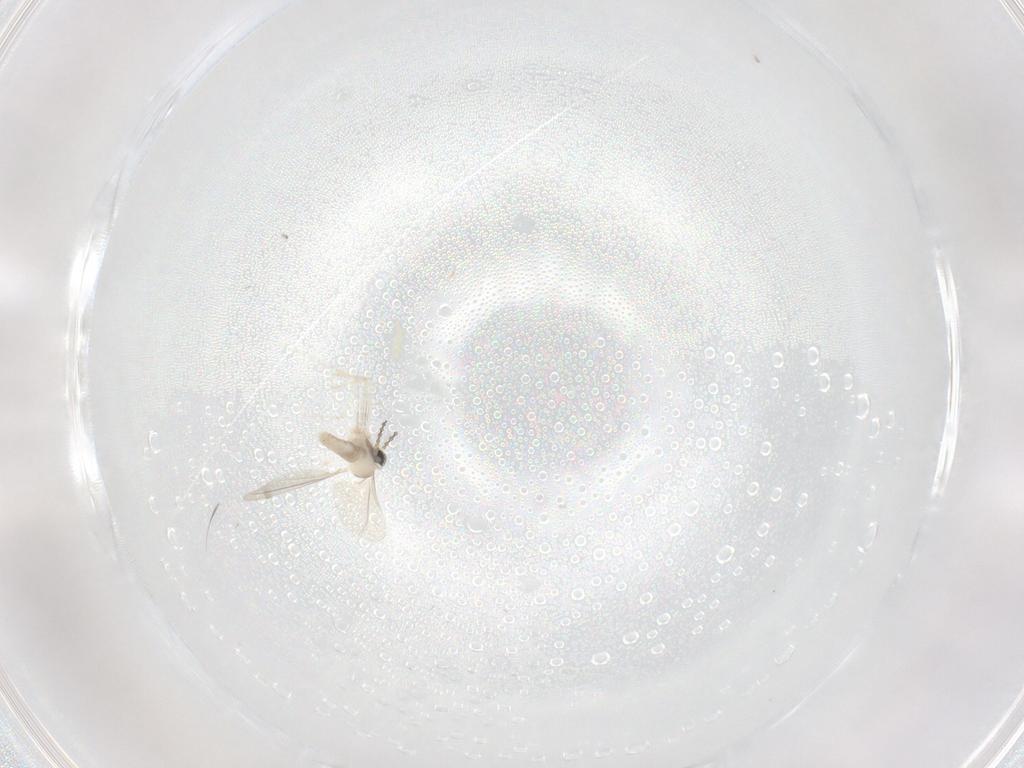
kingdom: Animalia
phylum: Arthropoda
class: Insecta
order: Diptera
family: Cecidomyiidae
